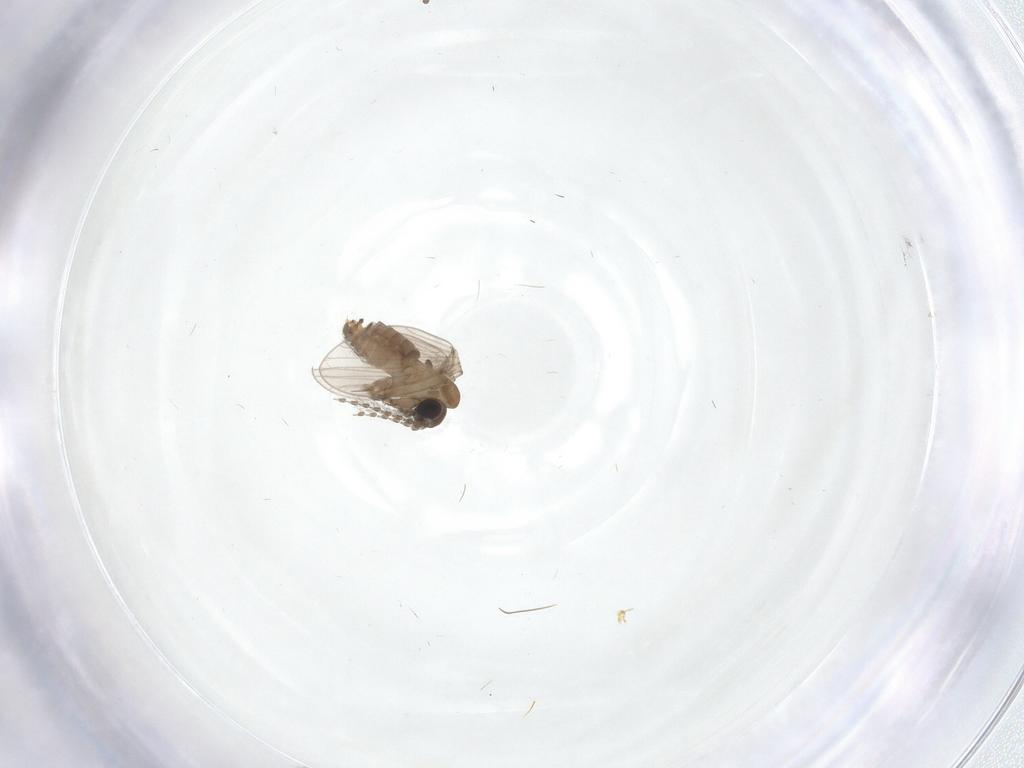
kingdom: Animalia
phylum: Arthropoda
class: Insecta
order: Diptera
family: Psychodidae
